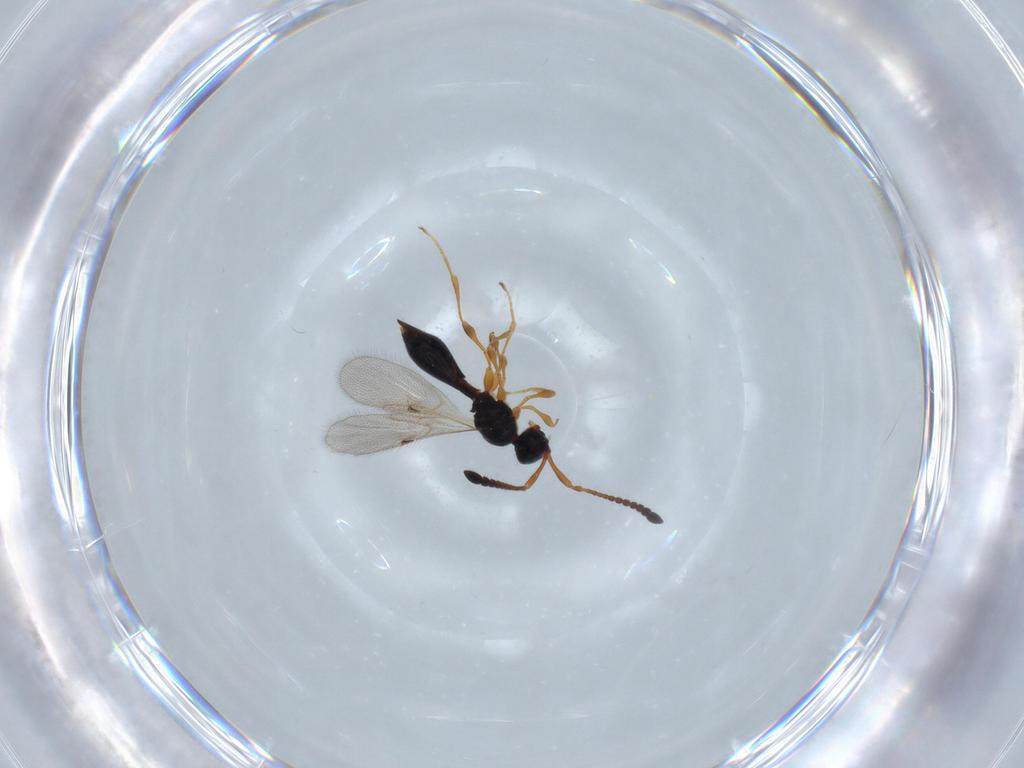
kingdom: Animalia
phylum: Arthropoda
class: Insecta
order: Hymenoptera
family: Diapriidae
